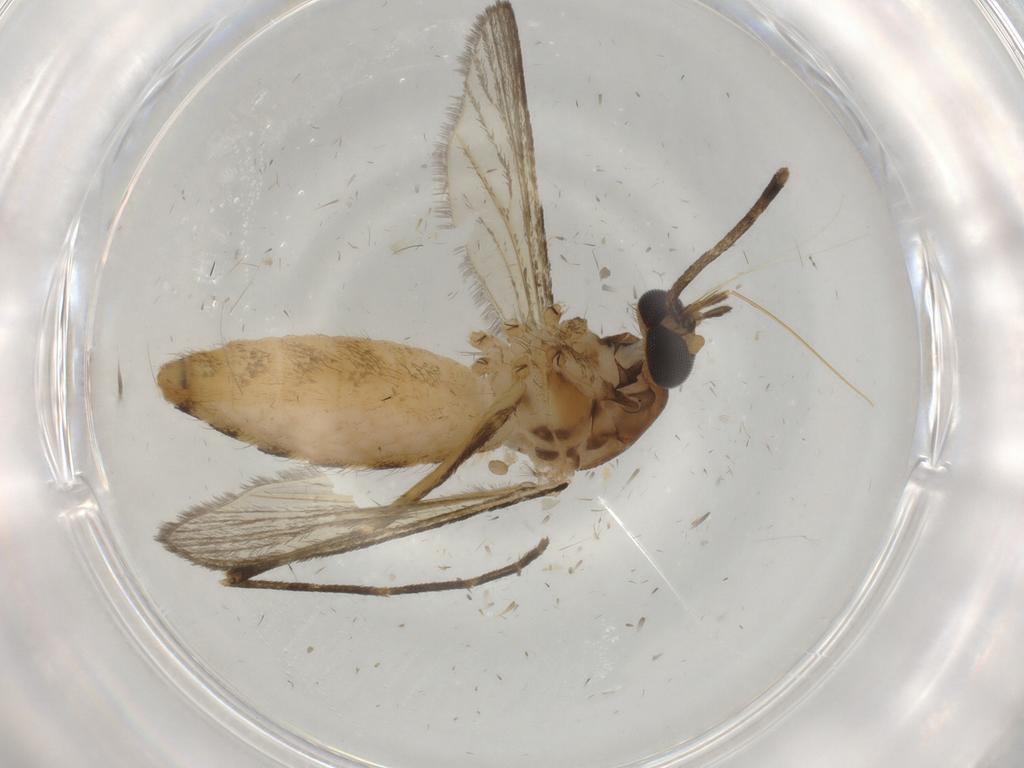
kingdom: Animalia
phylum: Arthropoda
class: Insecta
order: Diptera
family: Culicidae
